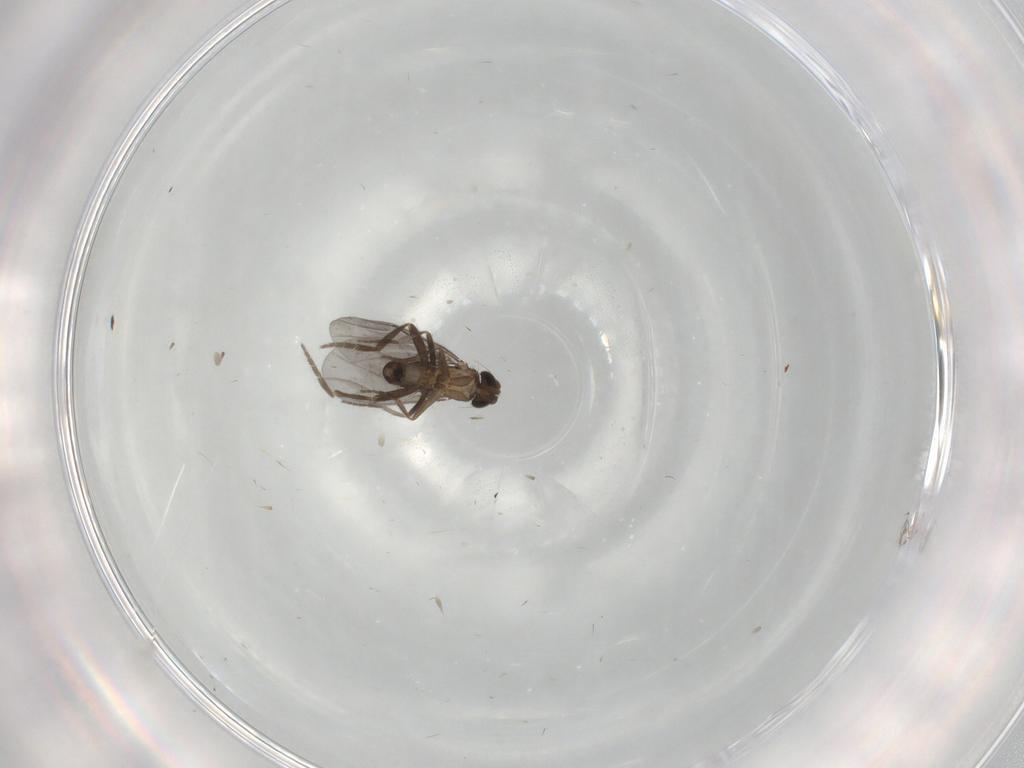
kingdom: Animalia
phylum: Arthropoda
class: Insecta
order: Diptera
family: Phoridae
